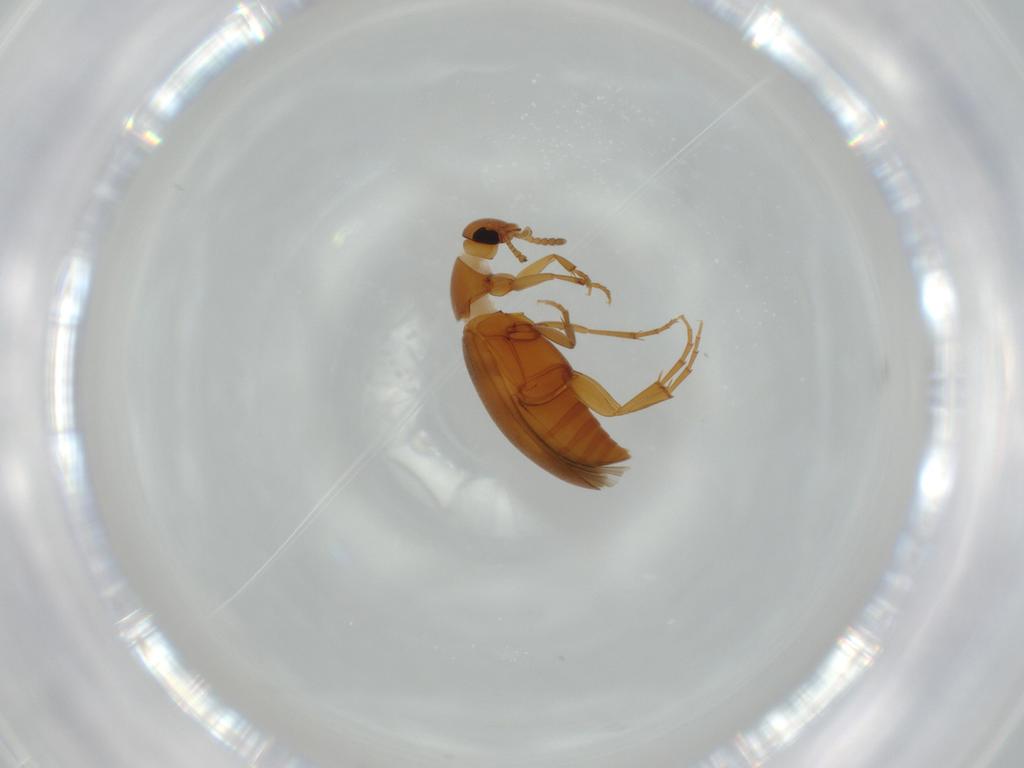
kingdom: Animalia
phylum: Arthropoda
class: Insecta
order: Coleoptera
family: Scraptiidae
